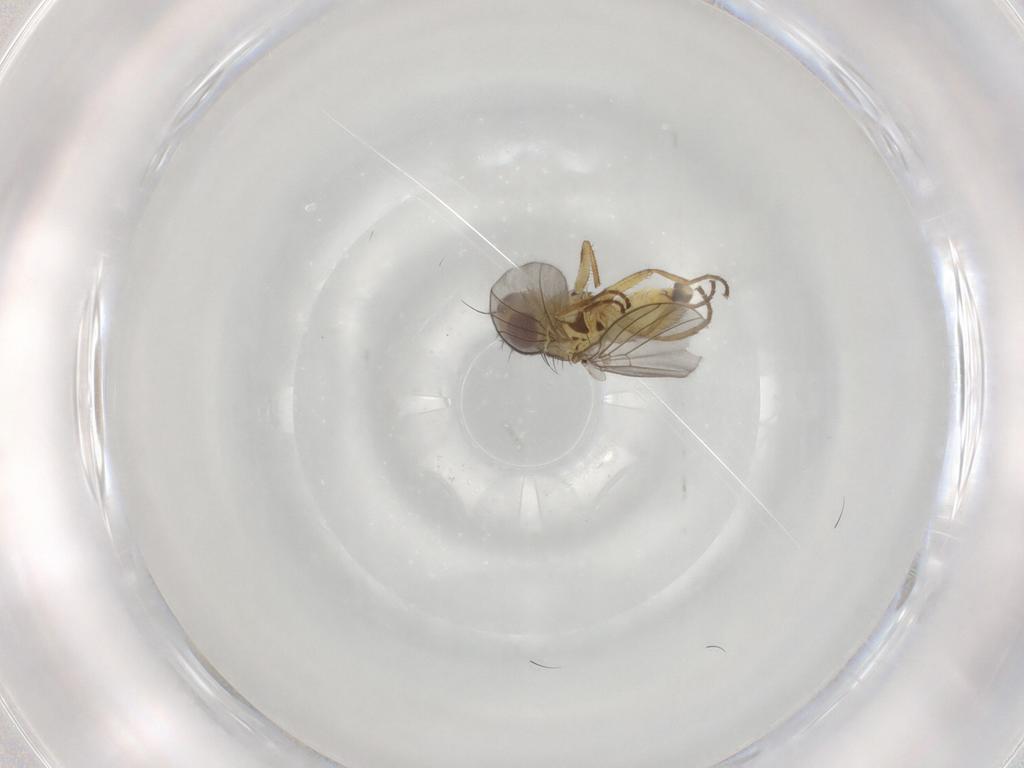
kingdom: Animalia
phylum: Arthropoda
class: Insecta
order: Diptera
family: Agromyzidae
